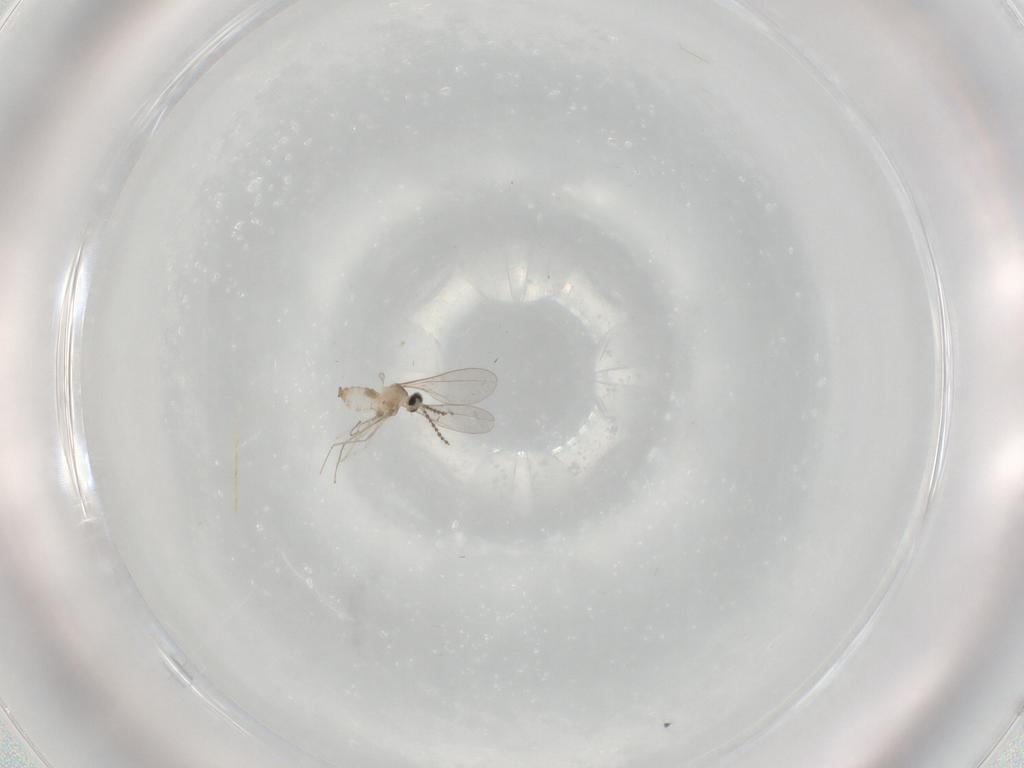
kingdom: Animalia
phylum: Arthropoda
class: Insecta
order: Diptera
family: Cecidomyiidae
